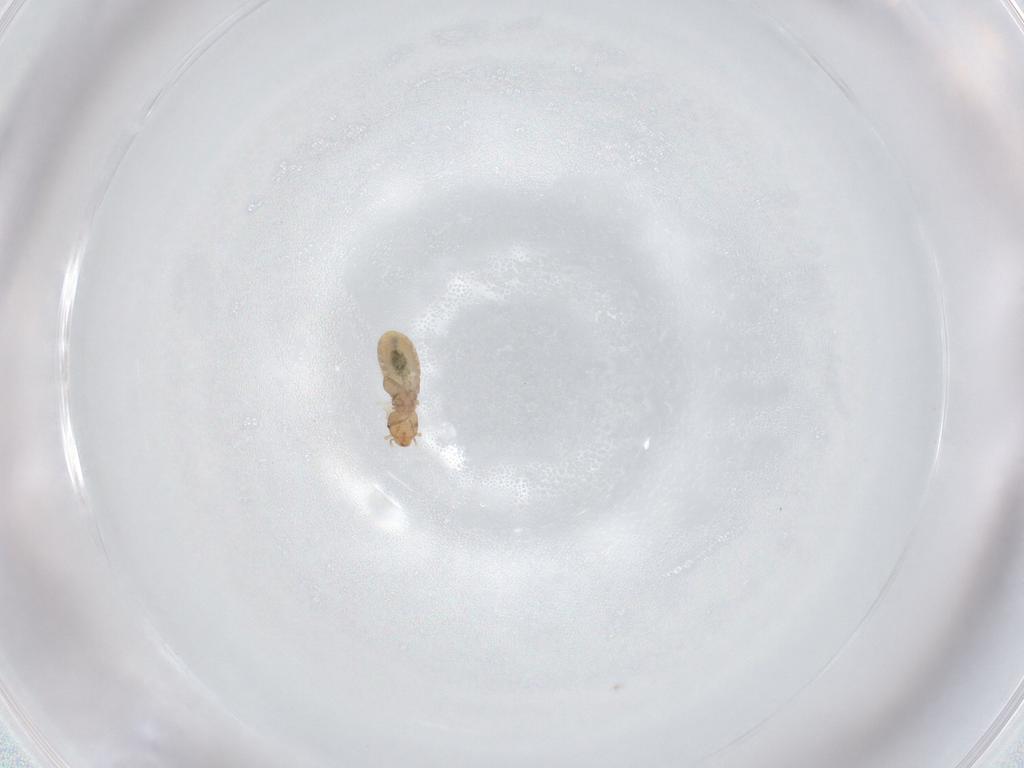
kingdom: Animalia
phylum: Arthropoda
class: Insecta
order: Psocodea
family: Liposcelididae
